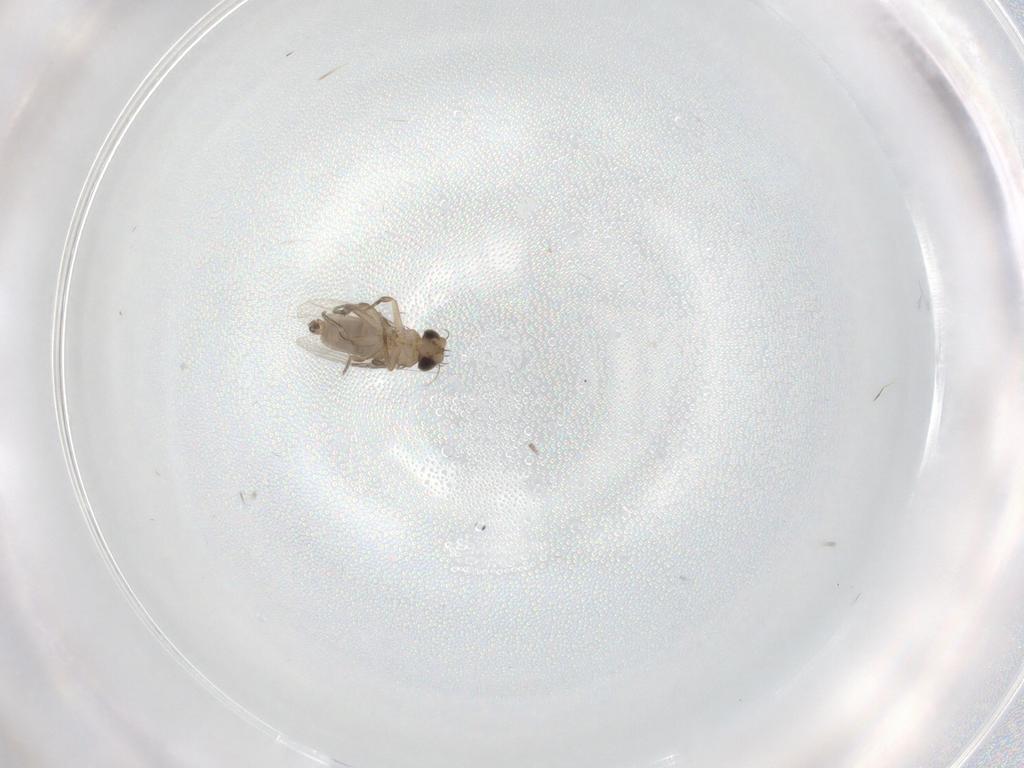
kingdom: Animalia
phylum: Arthropoda
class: Insecta
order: Diptera
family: Phoridae
